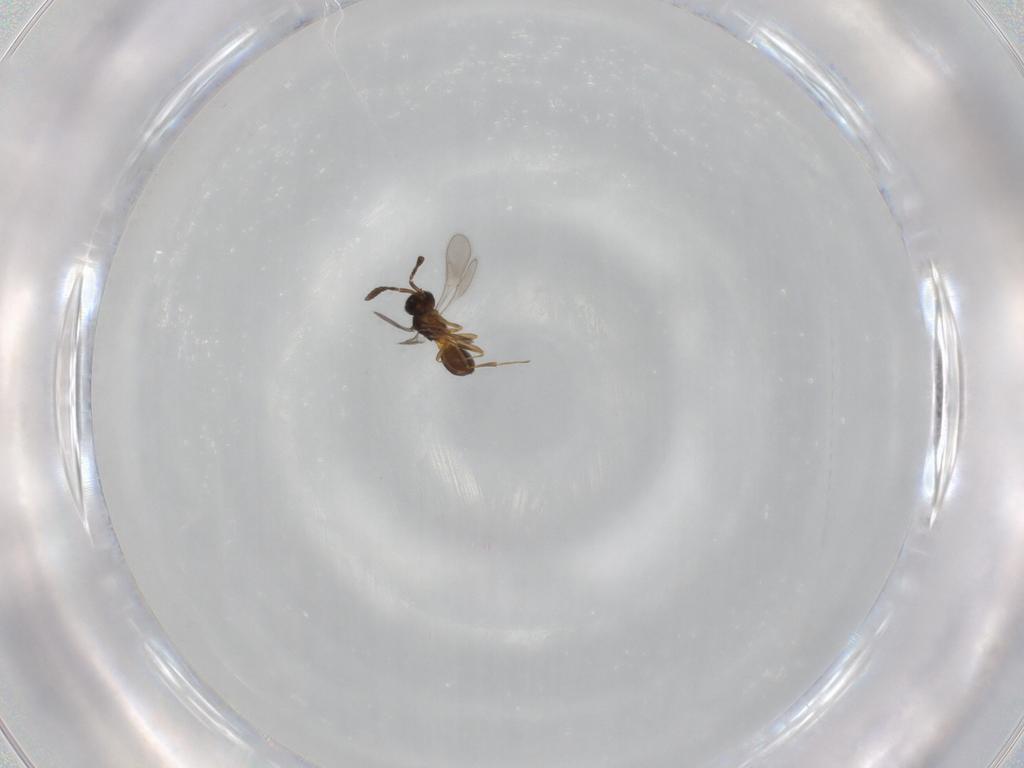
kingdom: Animalia
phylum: Arthropoda
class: Insecta
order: Hymenoptera
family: Scelionidae
